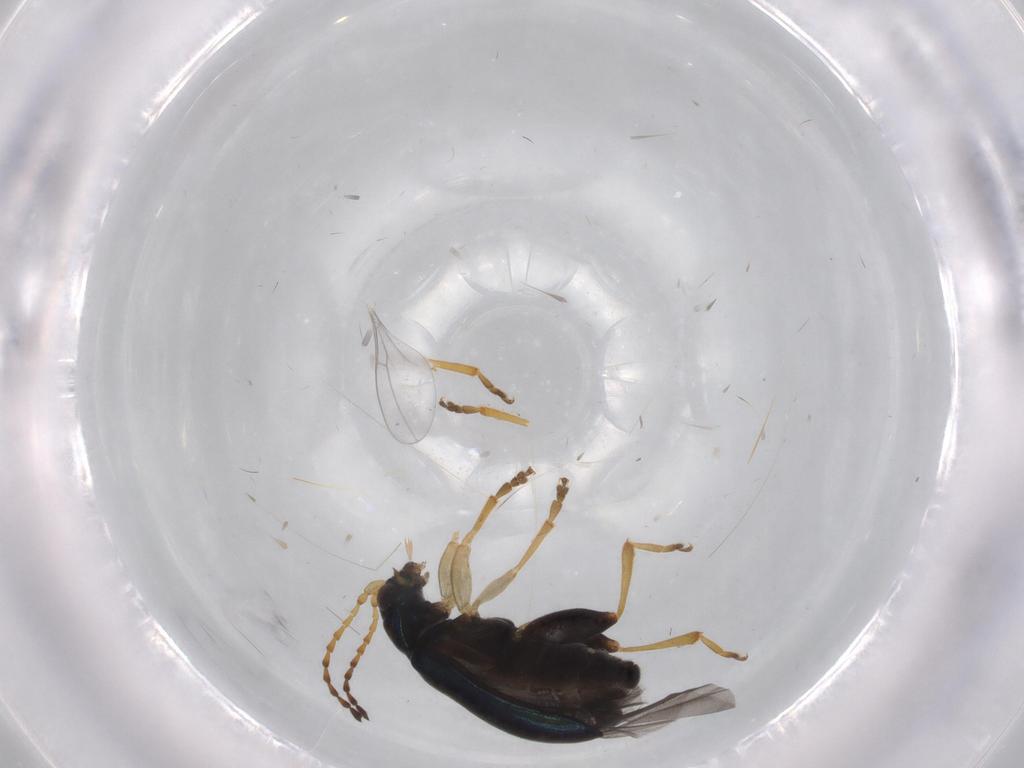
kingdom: Animalia
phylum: Arthropoda
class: Insecta
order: Coleoptera
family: Chrysomelidae
